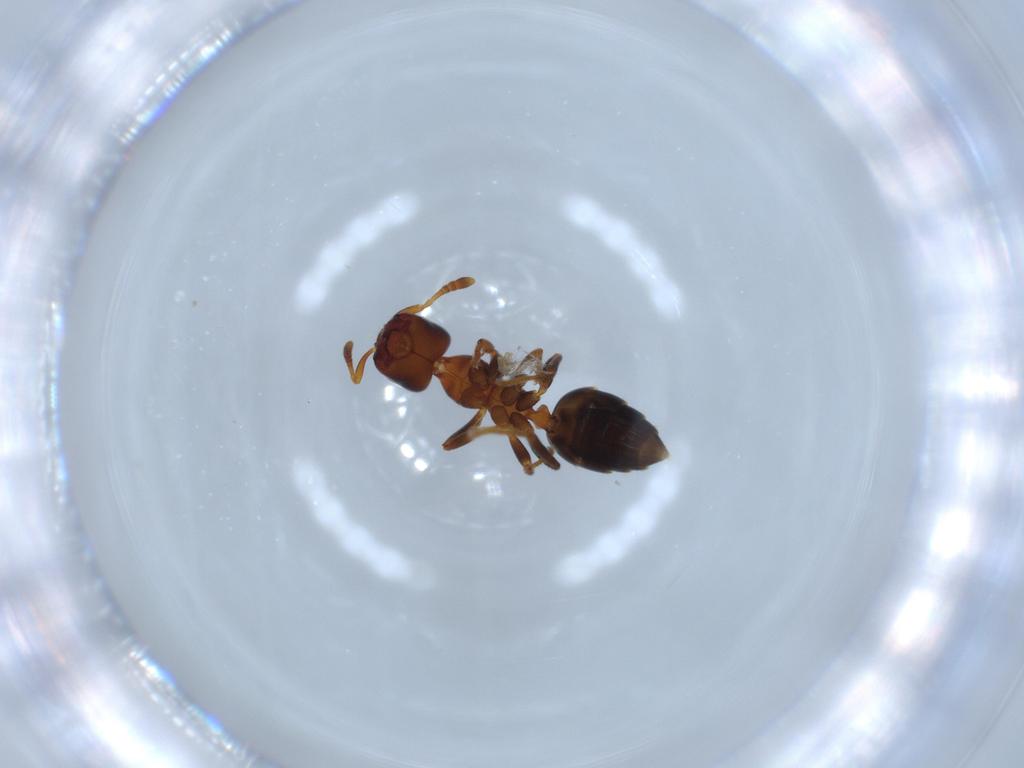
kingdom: Animalia
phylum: Arthropoda
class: Insecta
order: Hymenoptera
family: Formicidae
